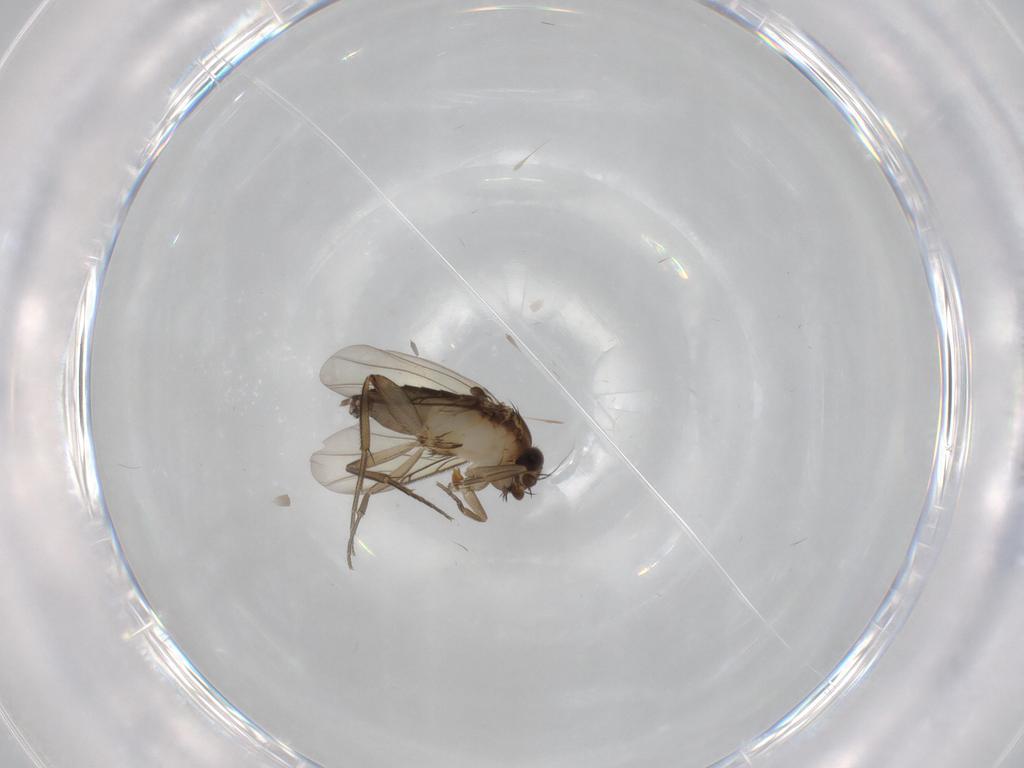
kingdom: Animalia
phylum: Arthropoda
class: Insecta
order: Diptera
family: Phoridae
